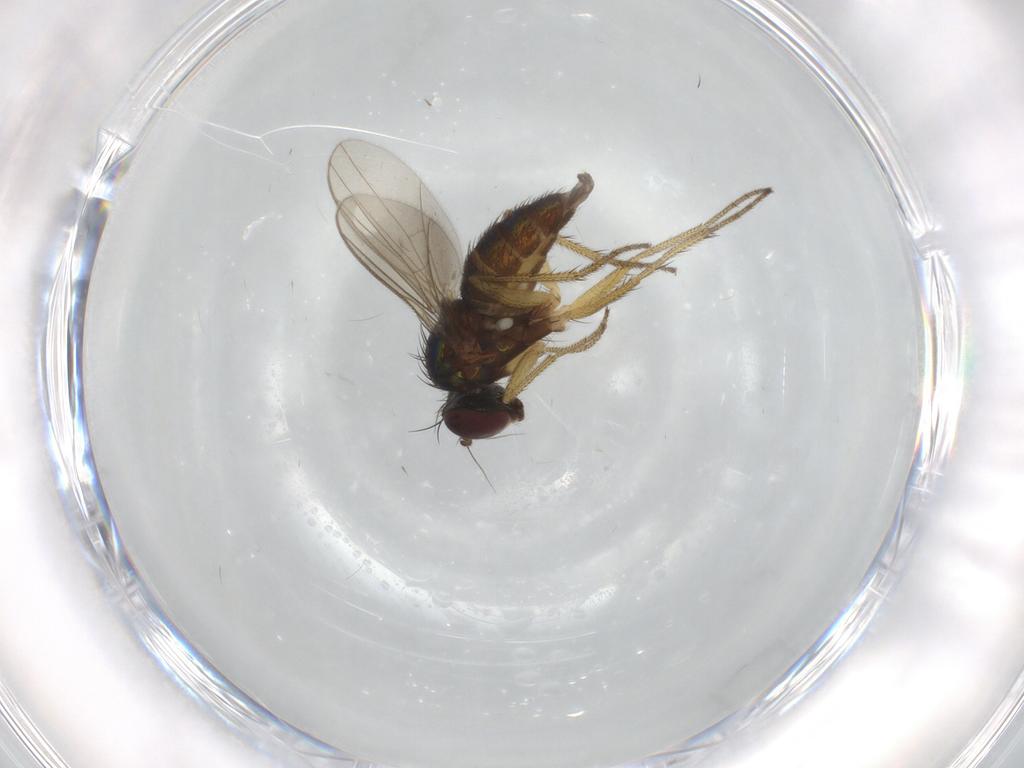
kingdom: Animalia
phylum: Arthropoda
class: Insecta
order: Diptera
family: Dolichopodidae
